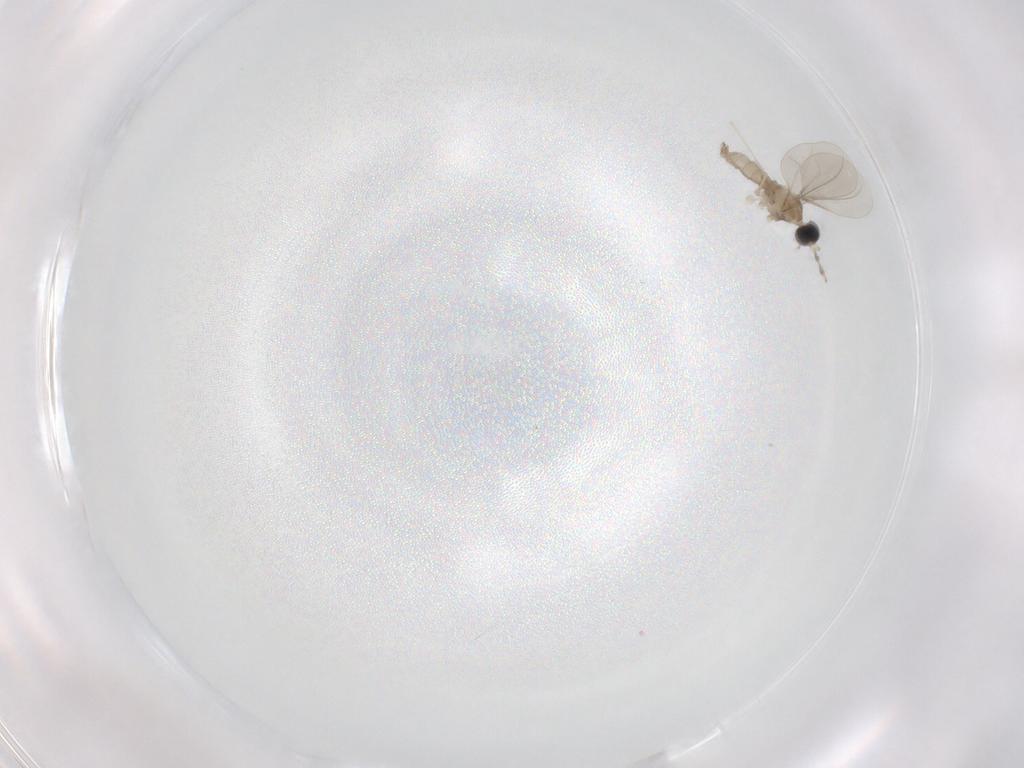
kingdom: Animalia
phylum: Arthropoda
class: Insecta
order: Diptera
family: Cecidomyiidae
